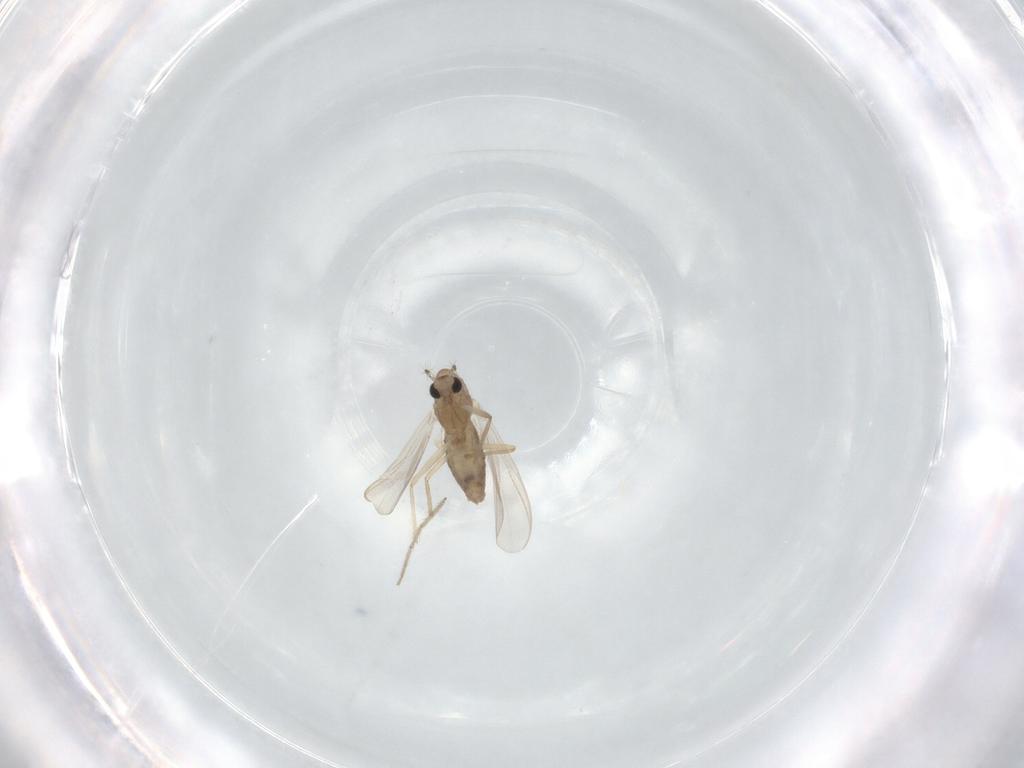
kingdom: Animalia
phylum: Arthropoda
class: Insecta
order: Diptera
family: Chironomidae
